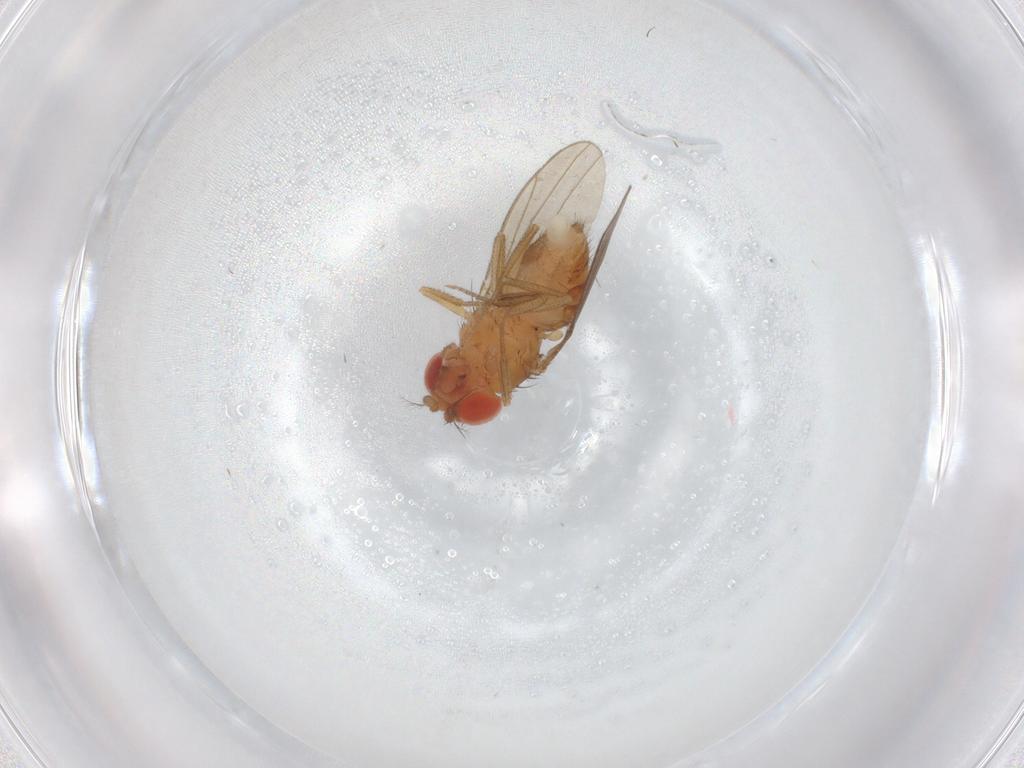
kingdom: Animalia
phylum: Arthropoda
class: Insecta
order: Diptera
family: Drosophilidae
